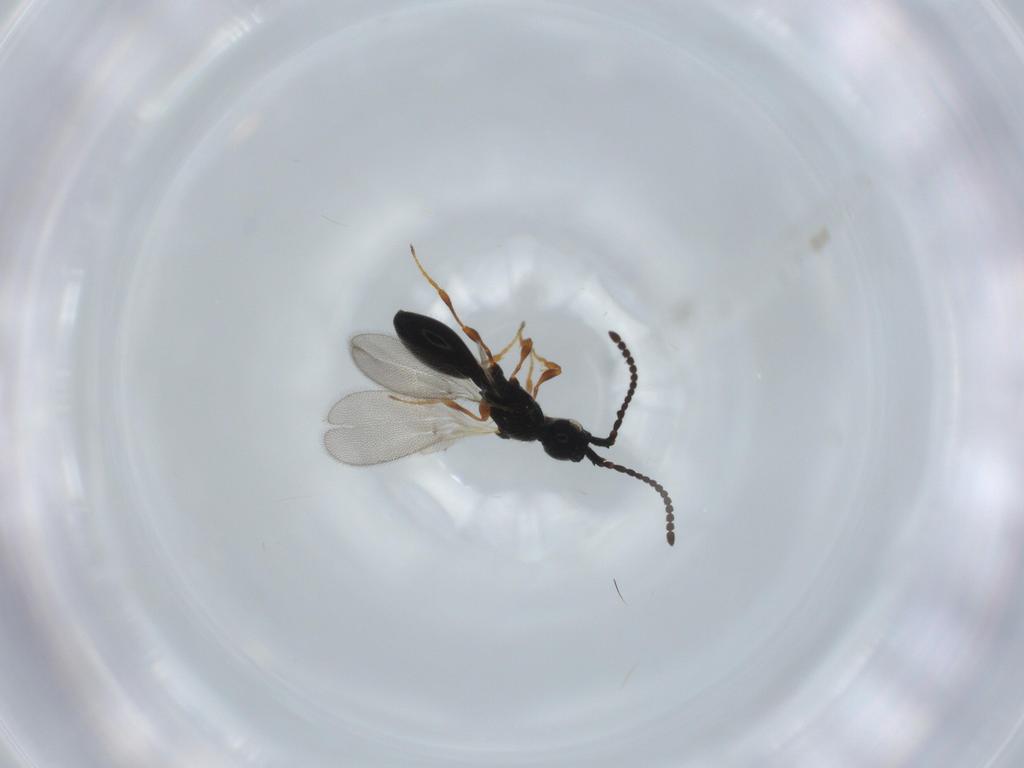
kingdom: Animalia
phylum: Arthropoda
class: Insecta
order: Hymenoptera
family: Diapriidae
